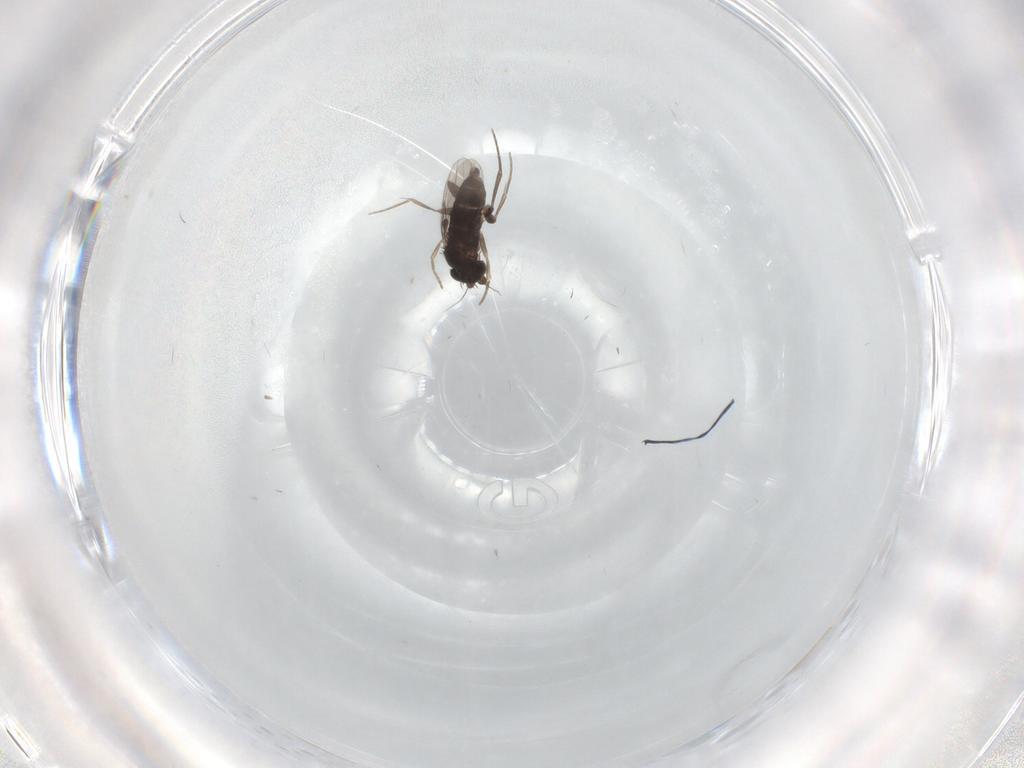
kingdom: Animalia
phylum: Arthropoda
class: Insecta
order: Diptera
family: Phoridae
